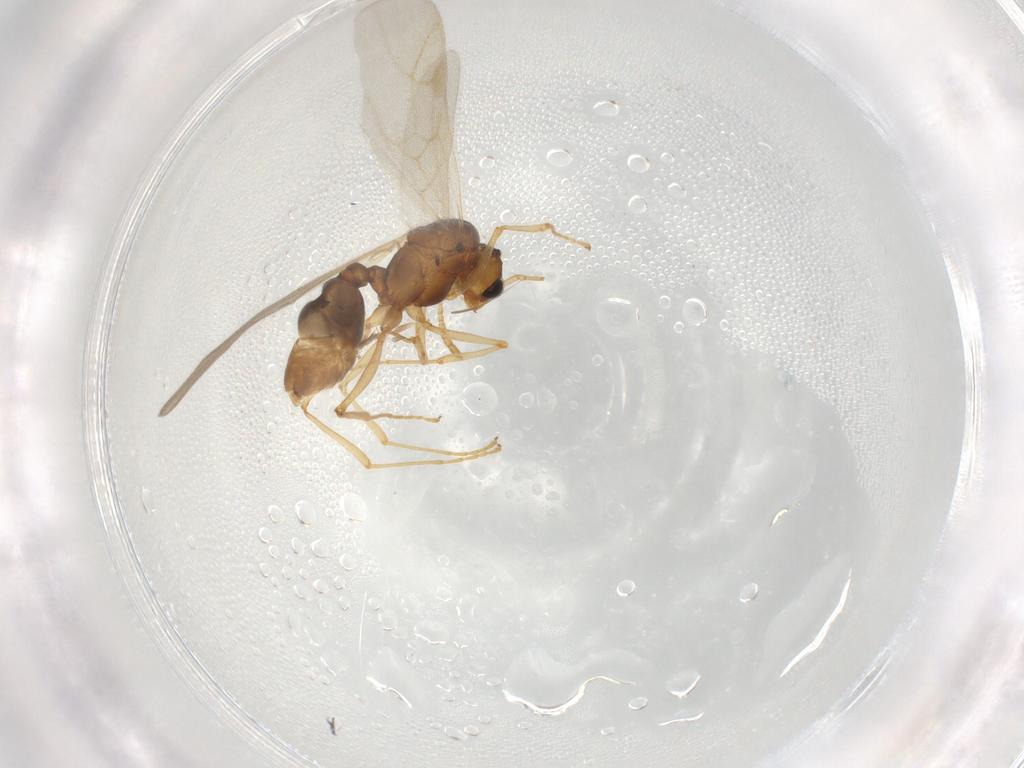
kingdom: Animalia
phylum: Arthropoda
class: Insecta
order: Hymenoptera
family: Formicidae
